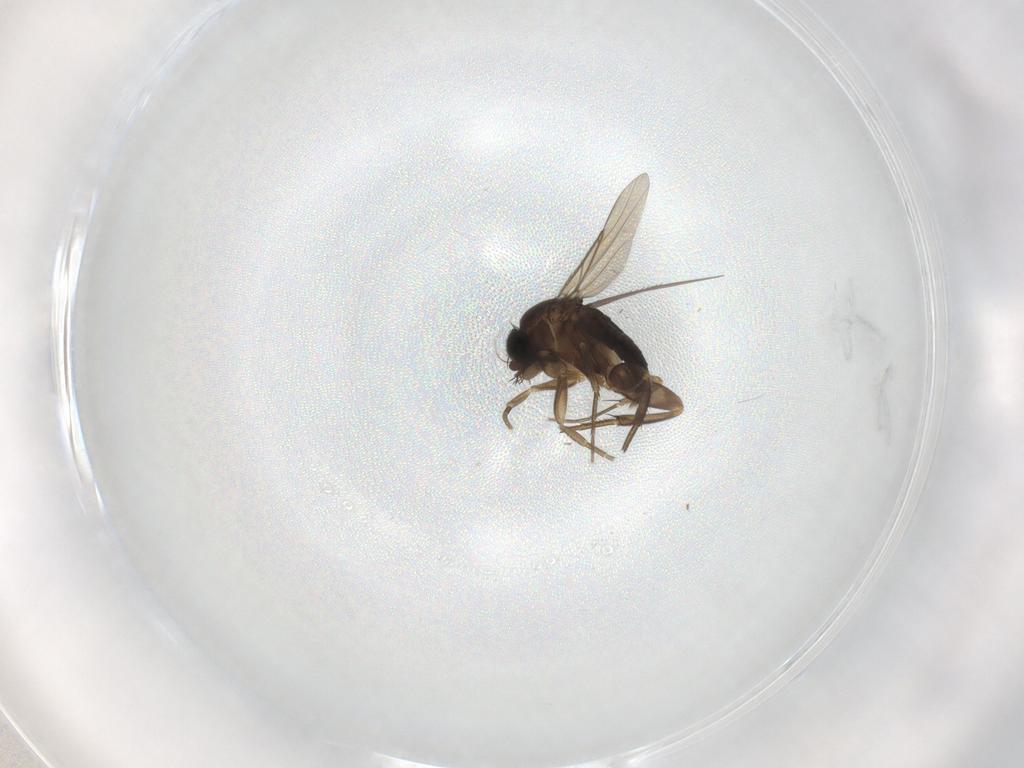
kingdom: Animalia
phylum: Arthropoda
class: Insecta
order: Diptera
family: Phoridae
